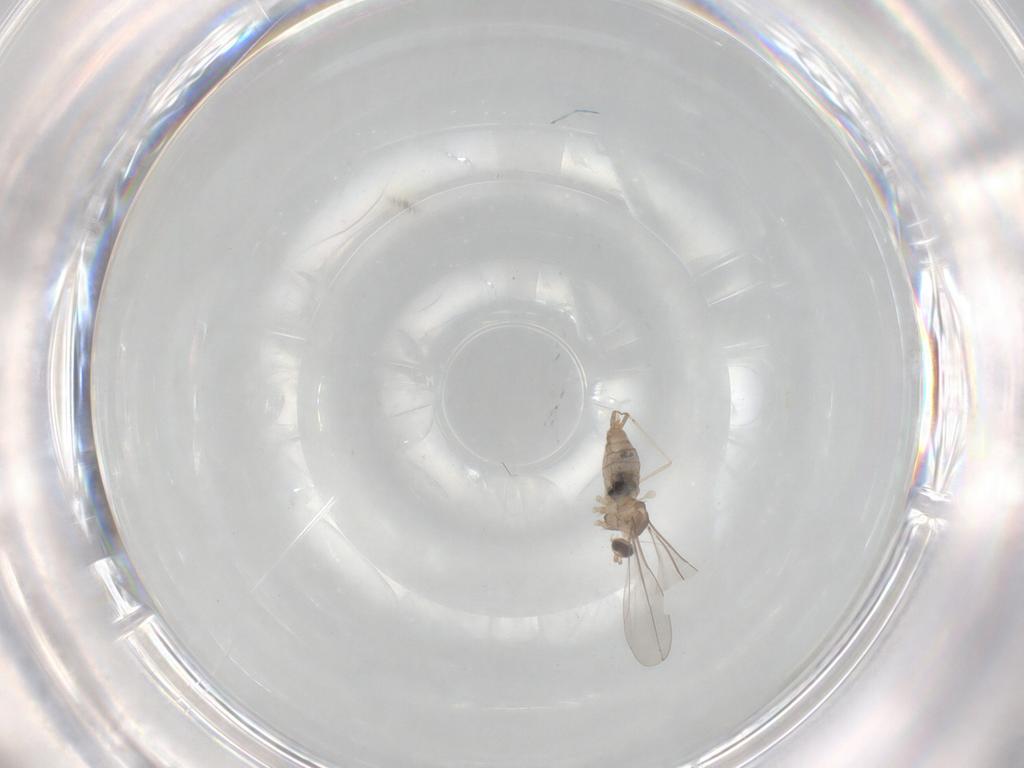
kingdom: Animalia
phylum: Arthropoda
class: Insecta
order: Diptera
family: Cecidomyiidae
